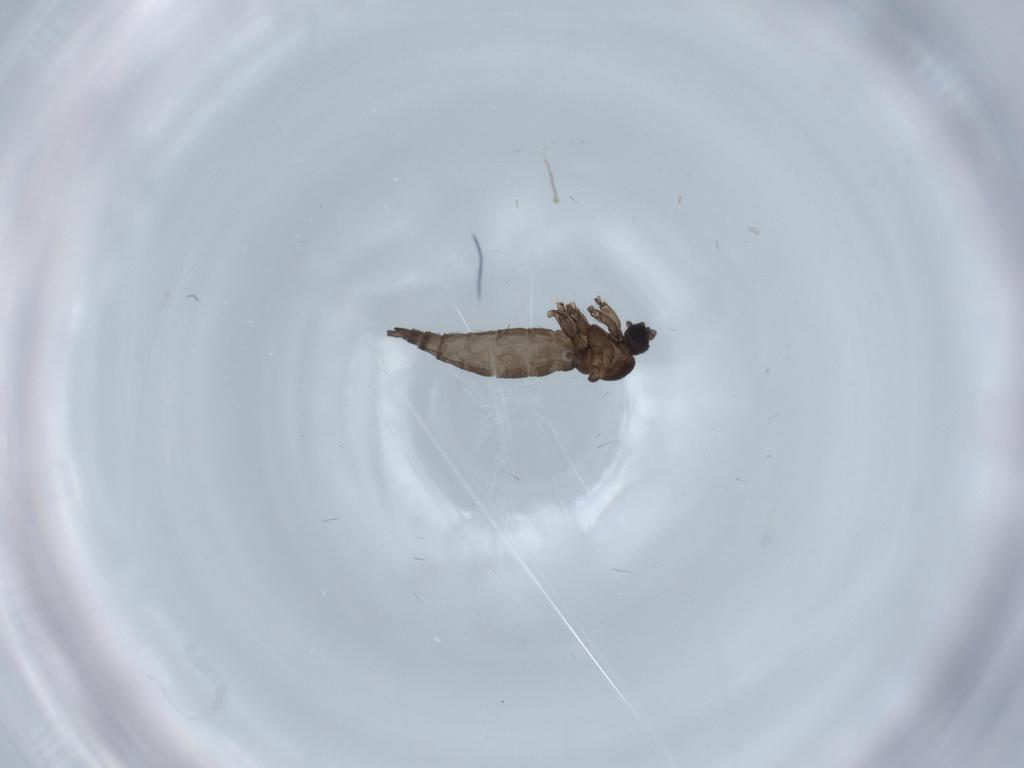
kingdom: Animalia
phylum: Arthropoda
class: Insecta
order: Diptera
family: Sciaridae
